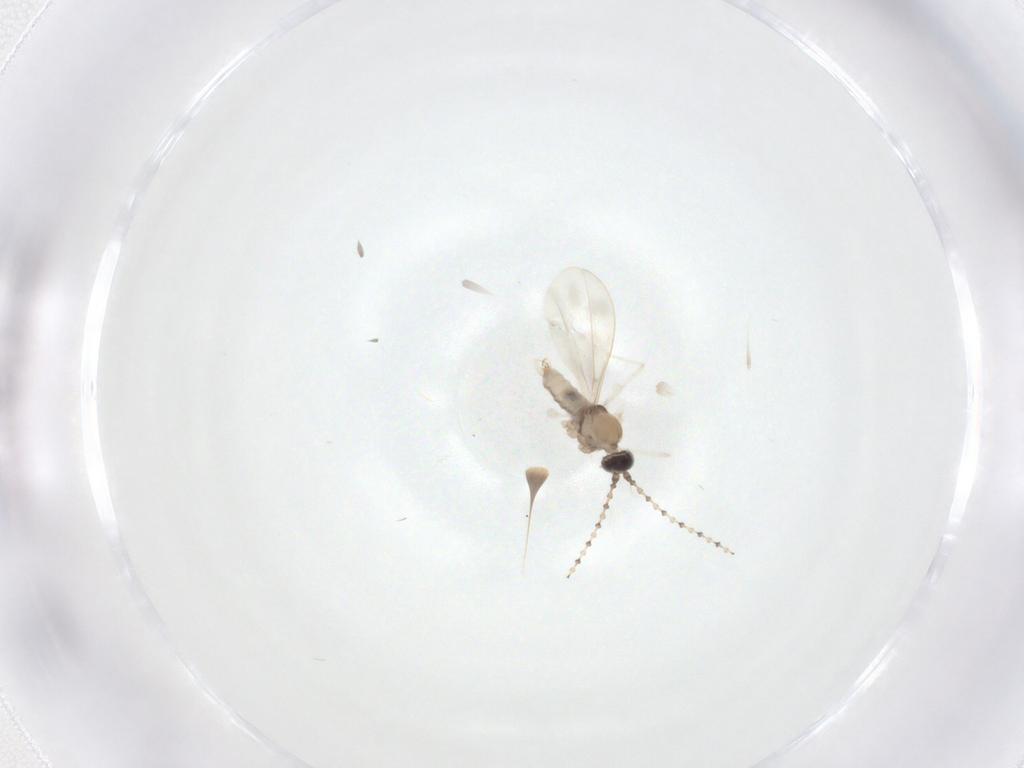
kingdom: Animalia
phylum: Arthropoda
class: Insecta
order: Diptera
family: Cecidomyiidae
